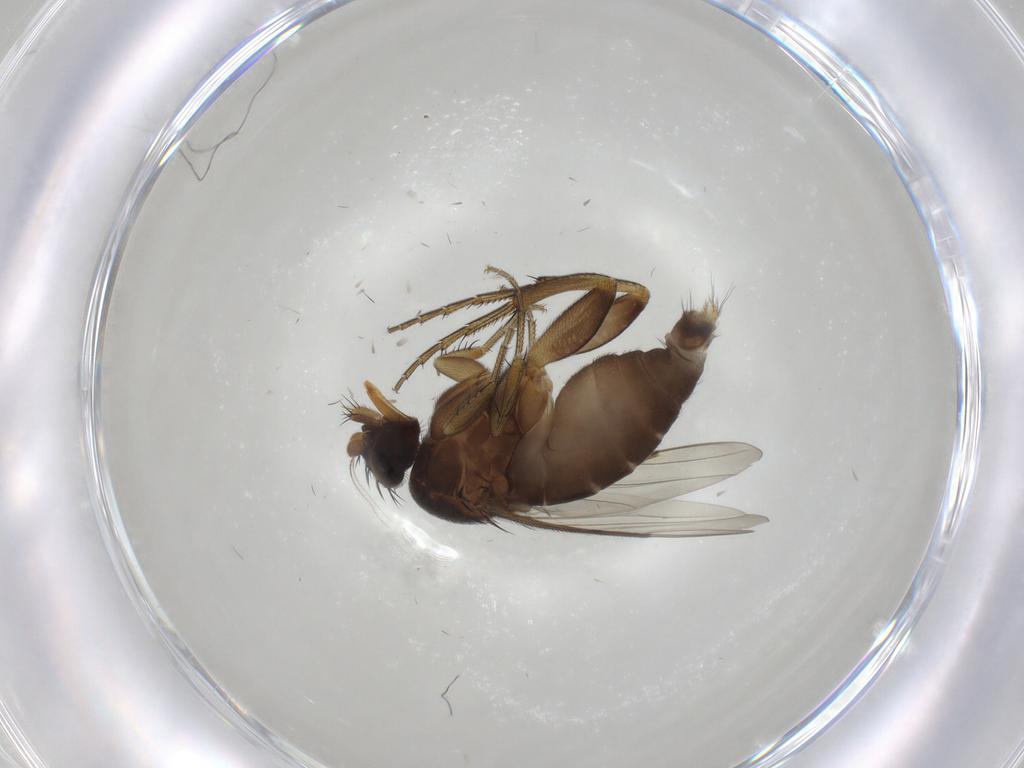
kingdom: Animalia
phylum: Arthropoda
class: Insecta
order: Diptera
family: Phoridae
